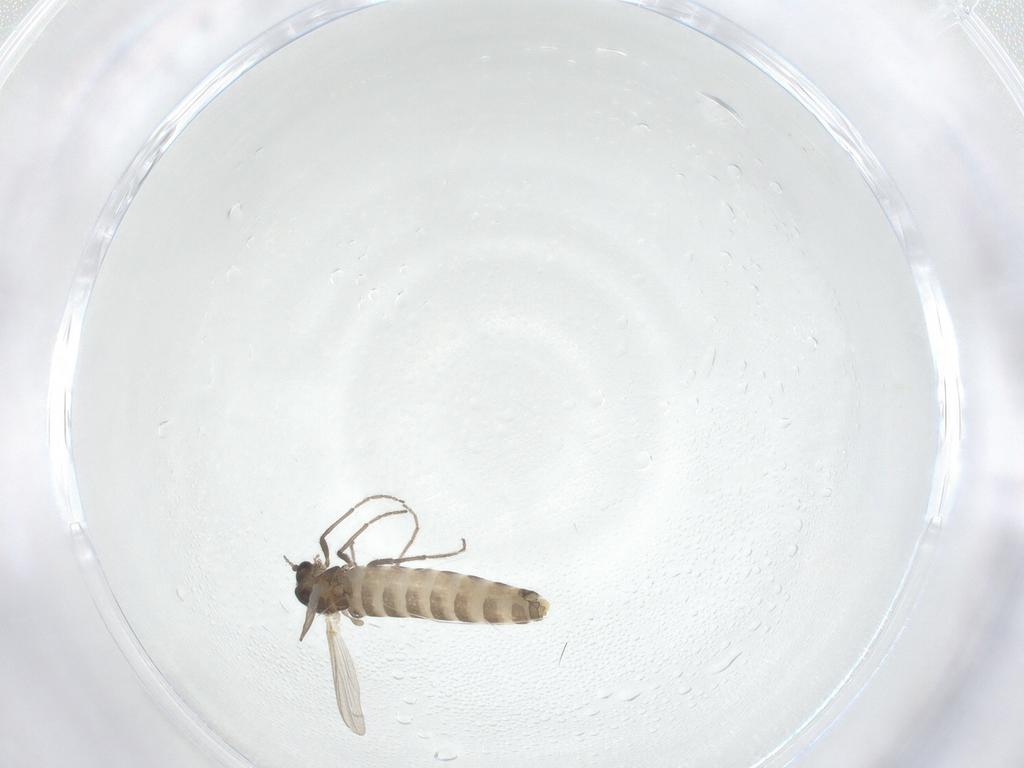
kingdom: Animalia
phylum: Arthropoda
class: Insecta
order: Diptera
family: Chironomidae
